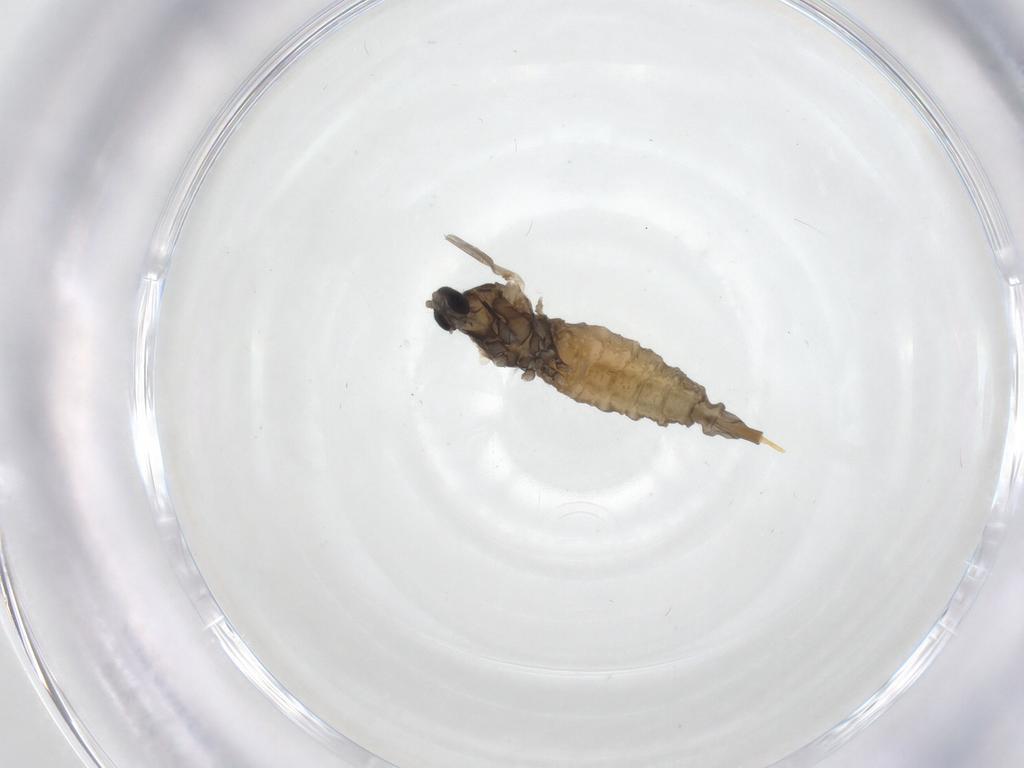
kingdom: Animalia
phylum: Arthropoda
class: Insecta
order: Diptera
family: Cecidomyiidae
